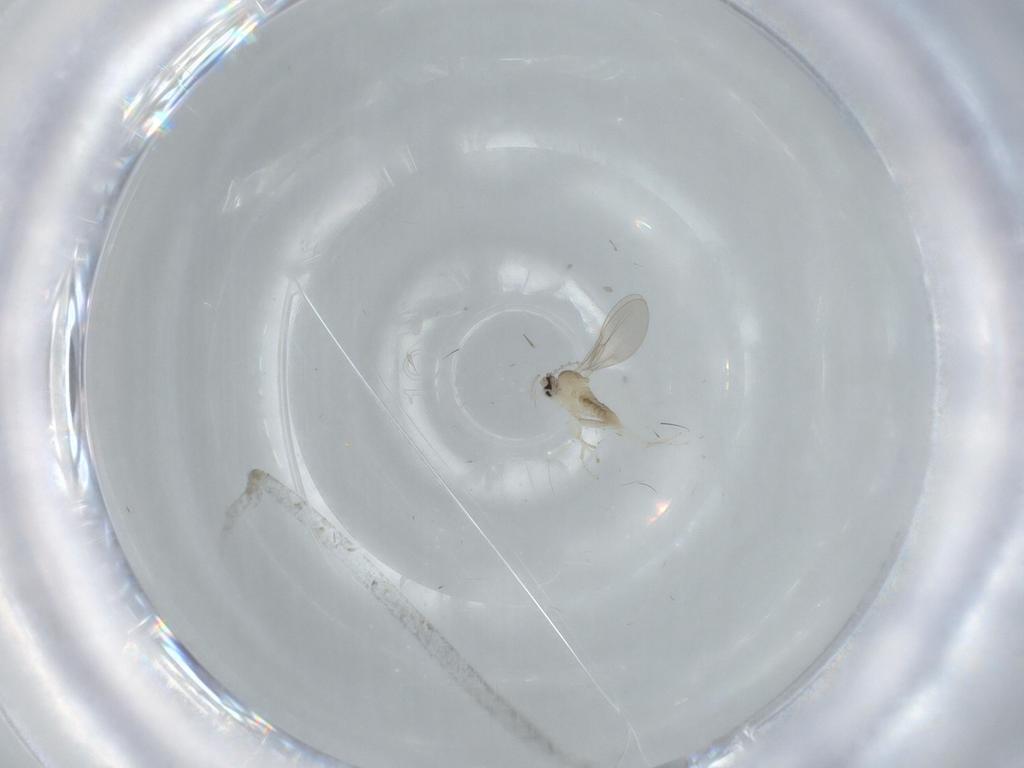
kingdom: Animalia
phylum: Arthropoda
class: Insecta
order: Diptera
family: Cecidomyiidae
